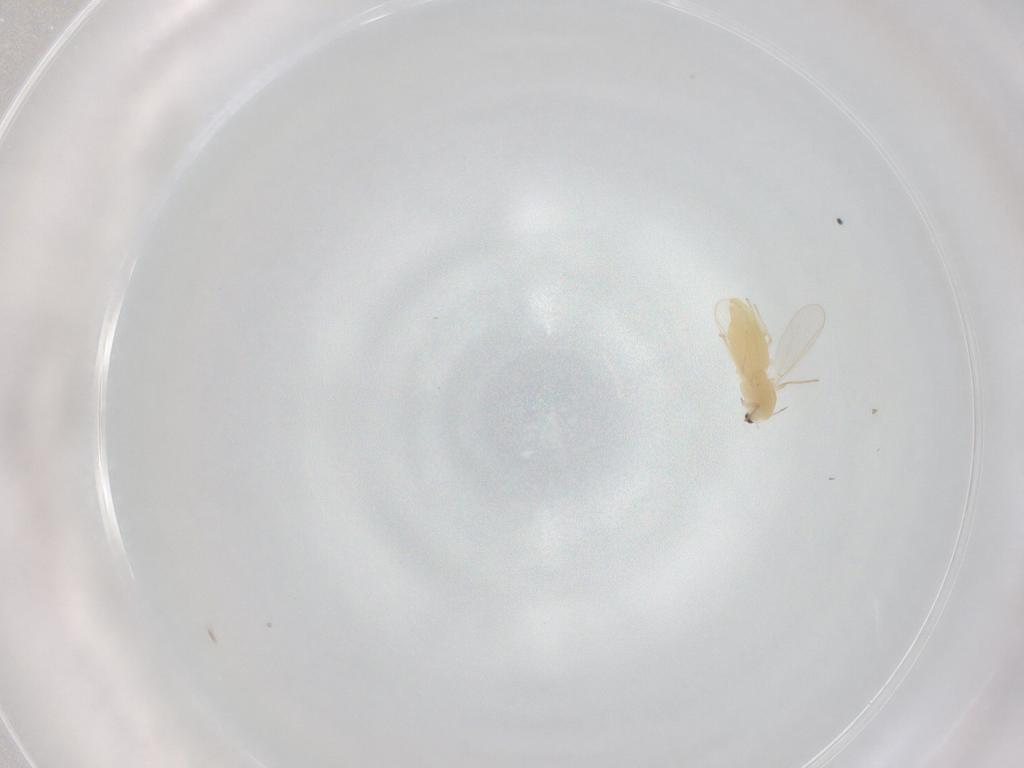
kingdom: Animalia
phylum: Arthropoda
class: Insecta
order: Diptera
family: Chironomidae
